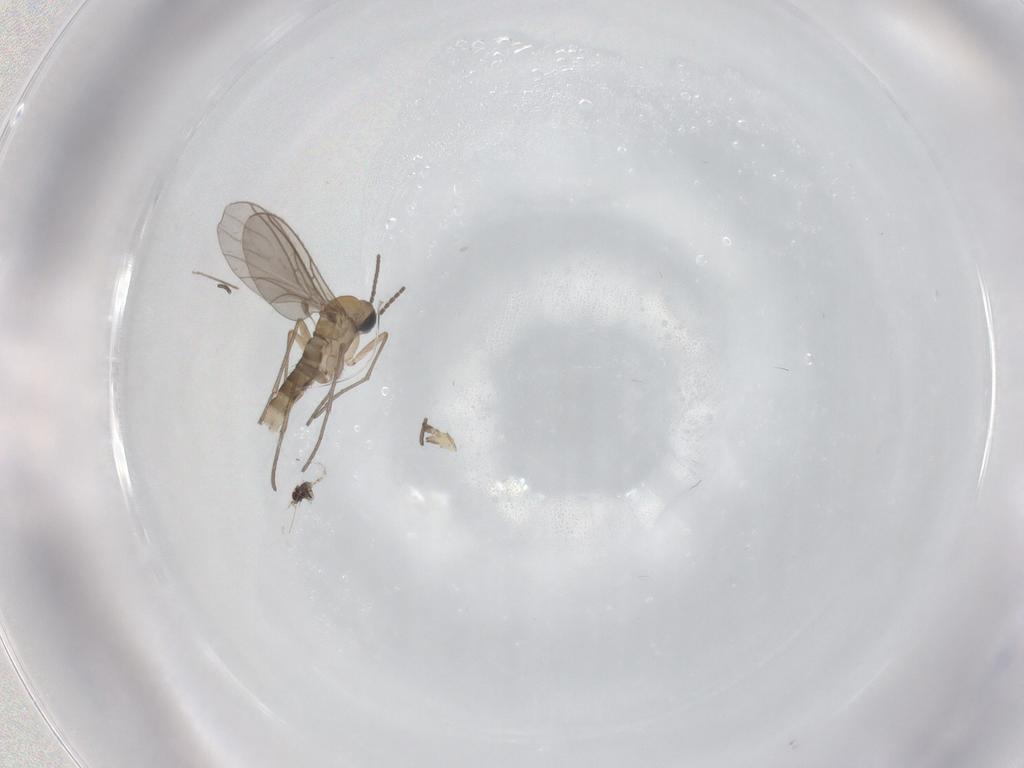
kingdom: Animalia
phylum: Arthropoda
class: Insecta
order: Diptera
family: Sciaridae
